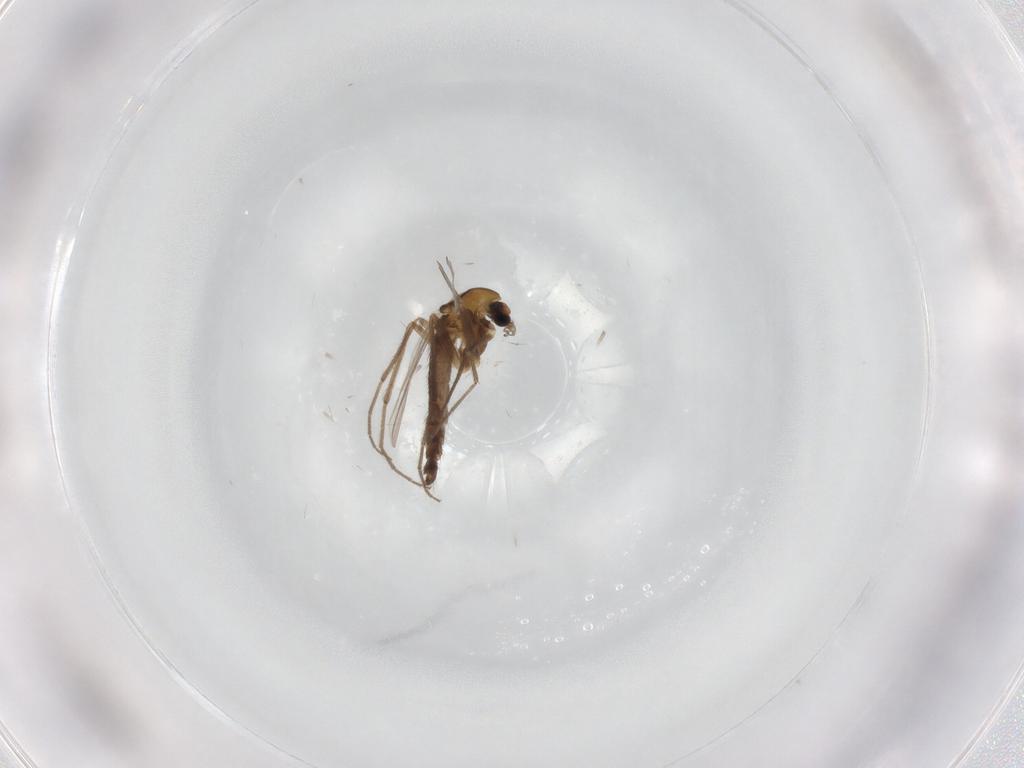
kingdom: Animalia
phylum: Arthropoda
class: Insecta
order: Diptera
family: Chironomidae
